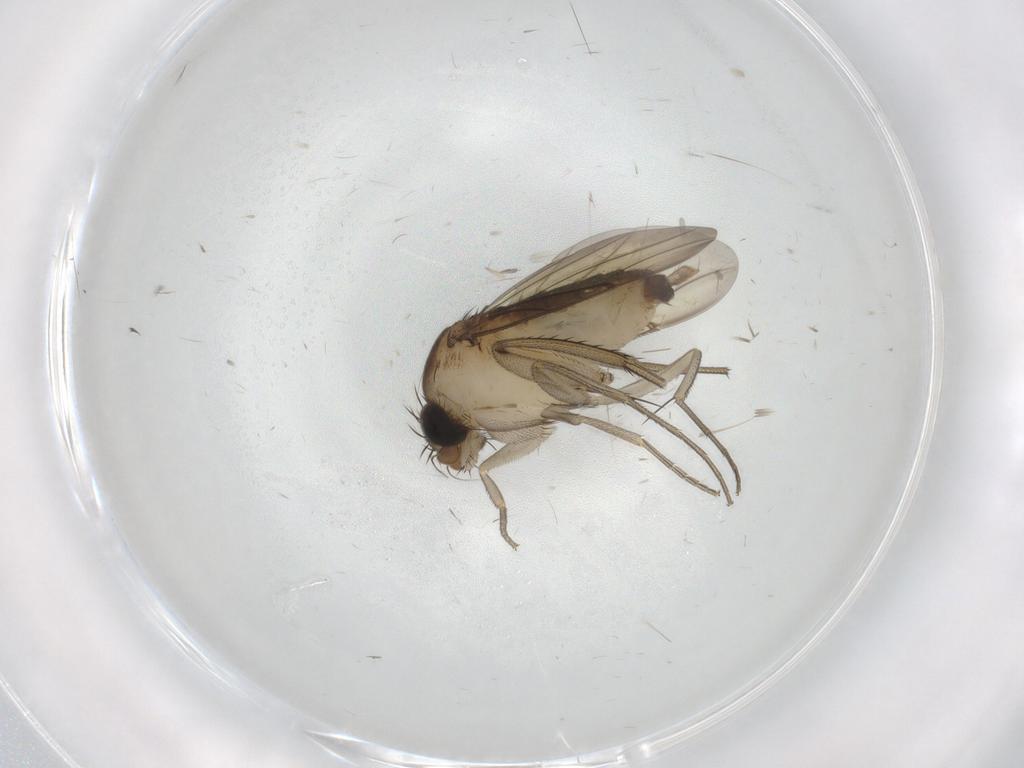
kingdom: Animalia
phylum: Arthropoda
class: Insecta
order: Diptera
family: Phoridae
